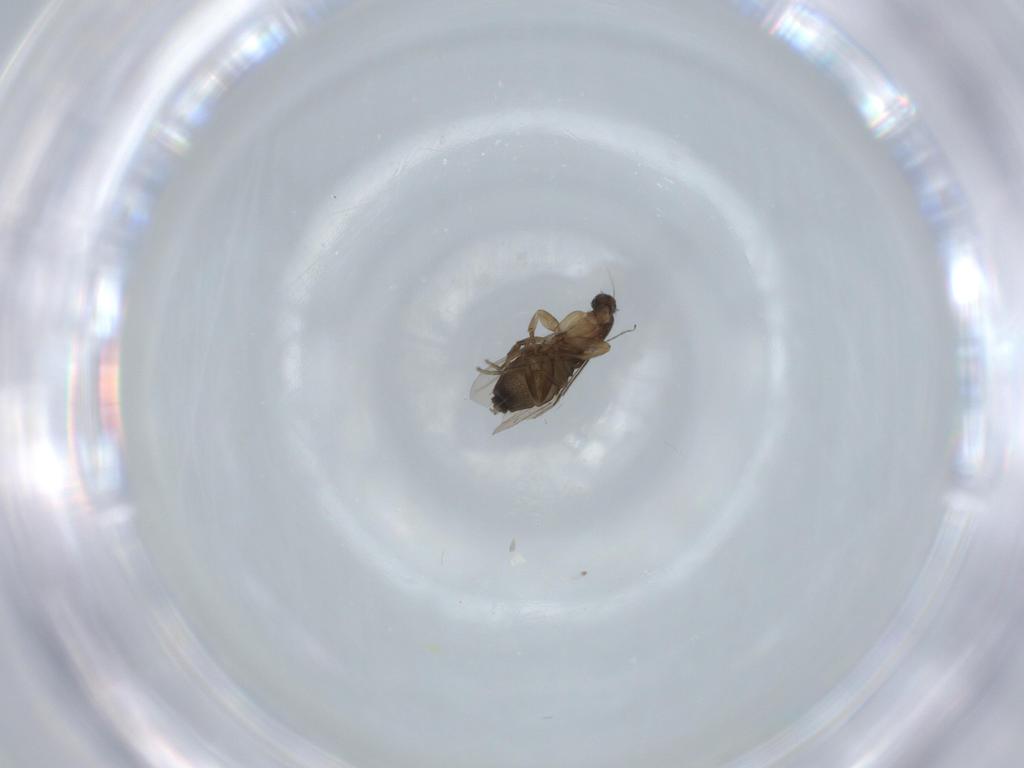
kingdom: Animalia
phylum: Arthropoda
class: Insecta
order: Diptera
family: Phoridae
